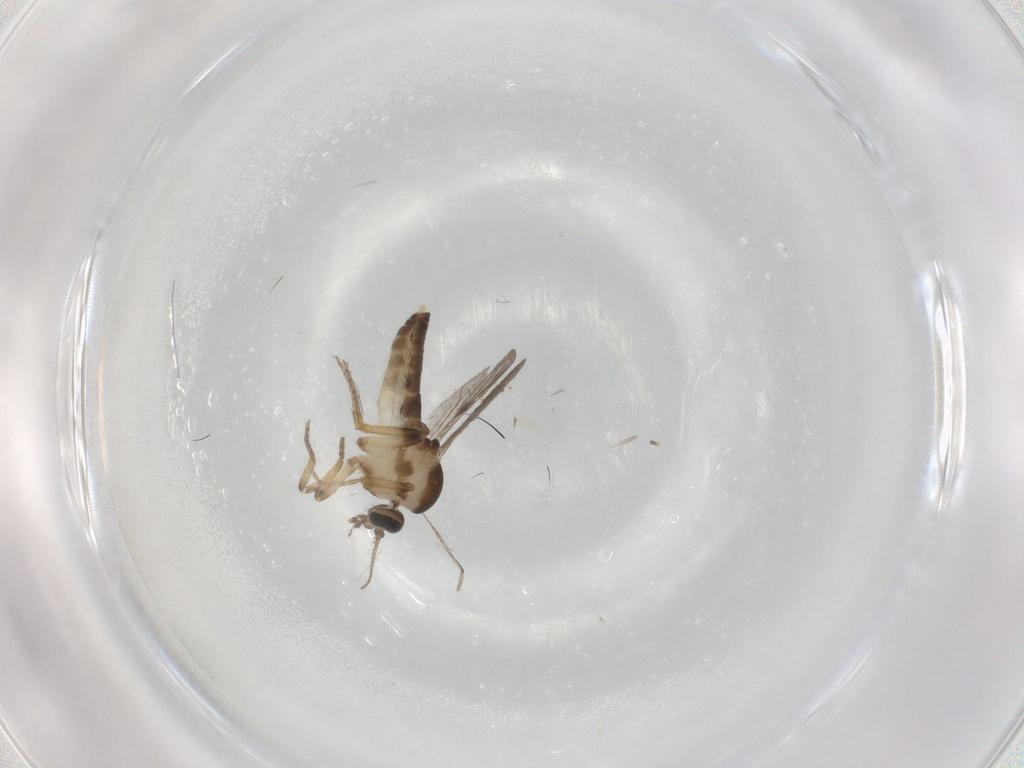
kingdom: Animalia
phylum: Arthropoda
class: Insecta
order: Diptera
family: Ceratopogonidae
